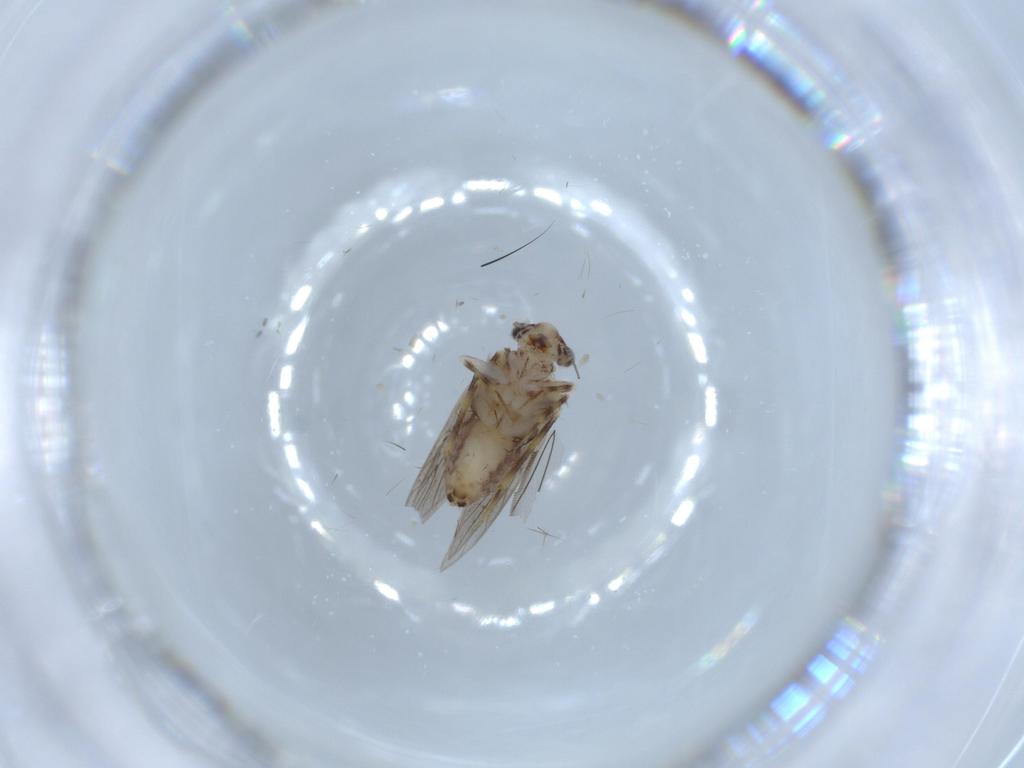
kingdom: Animalia
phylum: Arthropoda
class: Insecta
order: Psocodea
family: Lepidopsocidae
